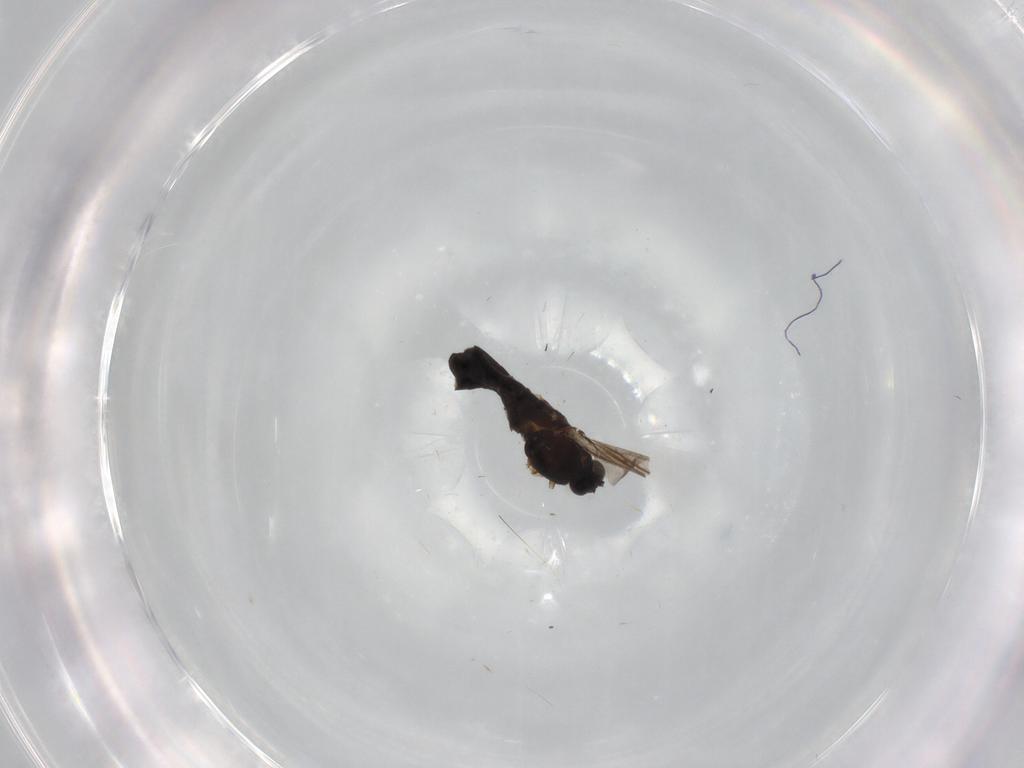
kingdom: Animalia
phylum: Arthropoda
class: Insecta
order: Diptera
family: Scatopsidae
